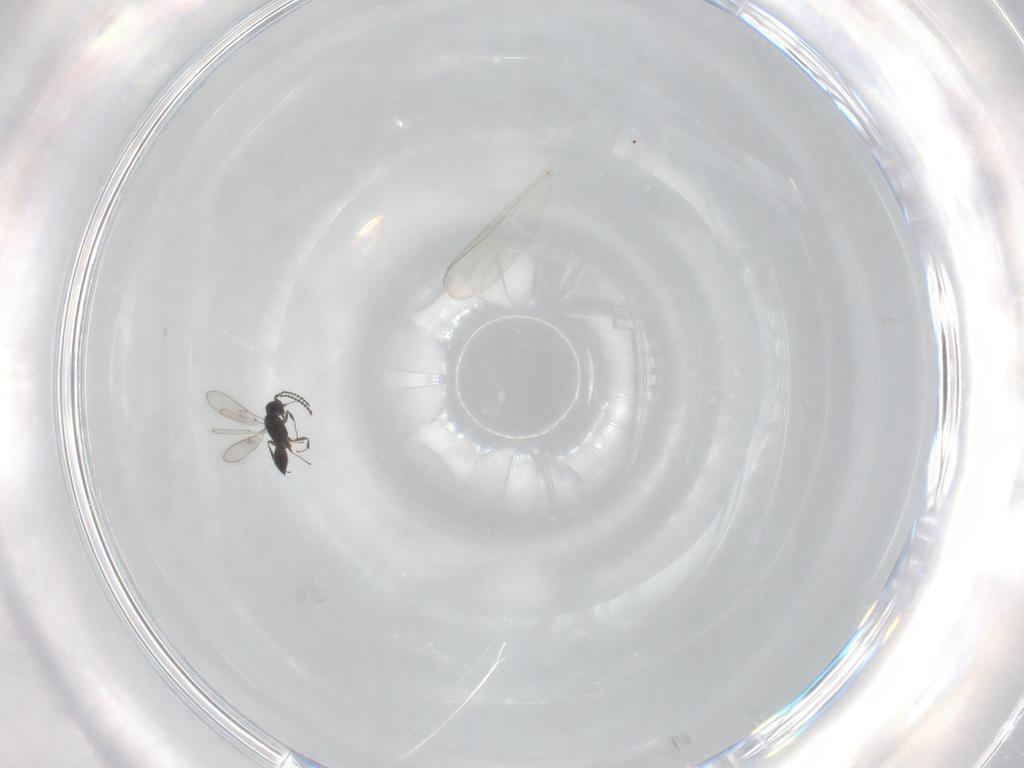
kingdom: Animalia
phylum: Arthropoda
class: Insecta
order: Hymenoptera
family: Scelionidae
